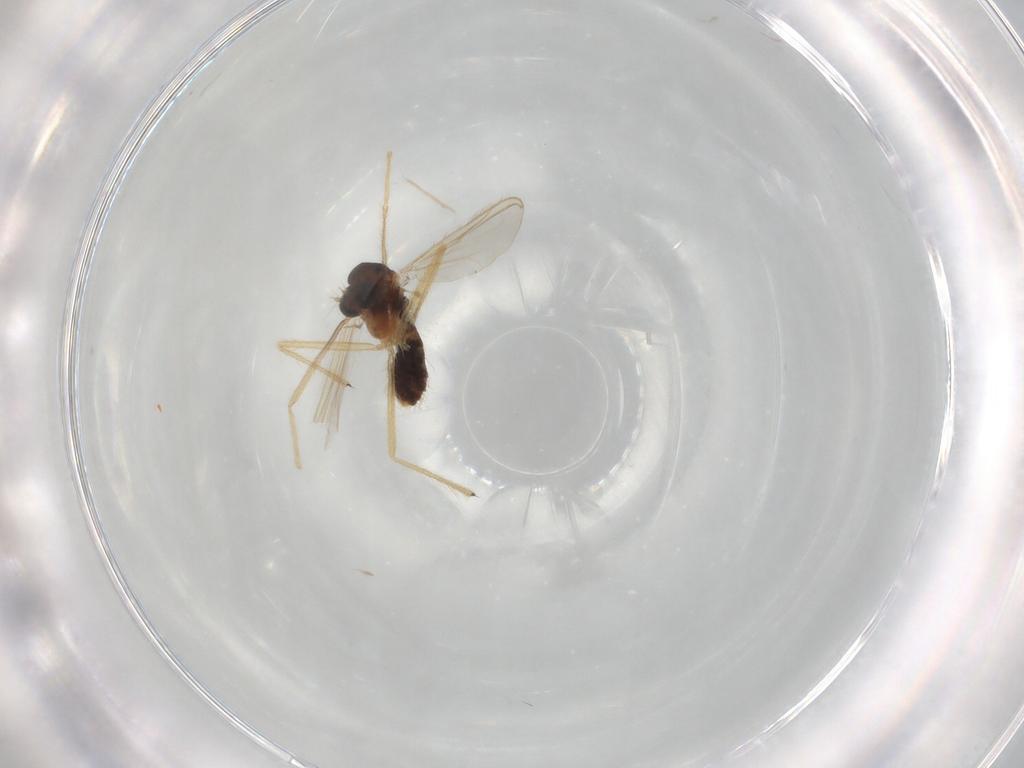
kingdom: Animalia
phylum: Arthropoda
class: Insecta
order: Diptera
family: Chironomidae
